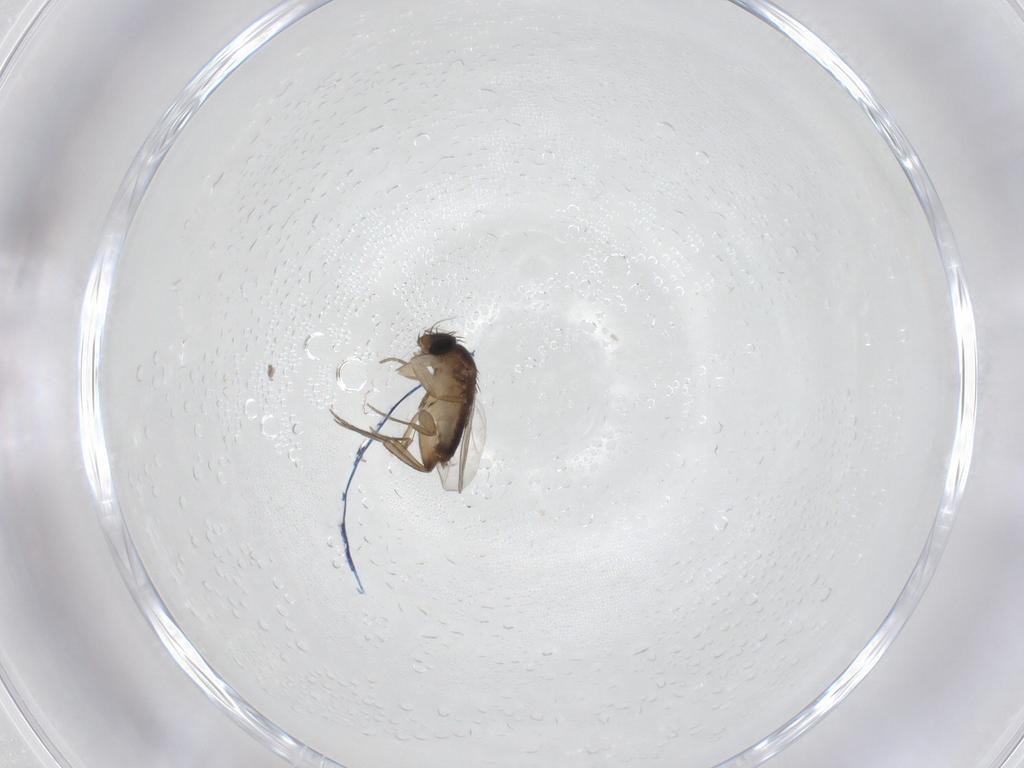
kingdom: Animalia
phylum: Arthropoda
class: Insecta
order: Diptera
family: Phoridae
